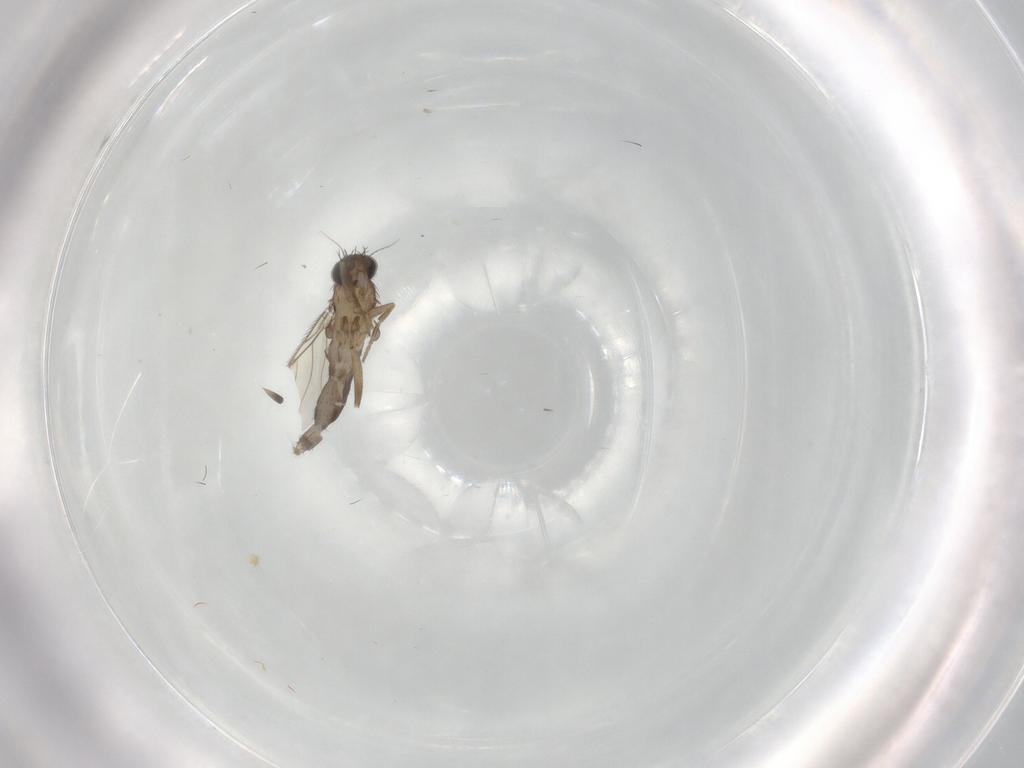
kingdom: Animalia
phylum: Arthropoda
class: Insecta
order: Diptera
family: Phoridae
